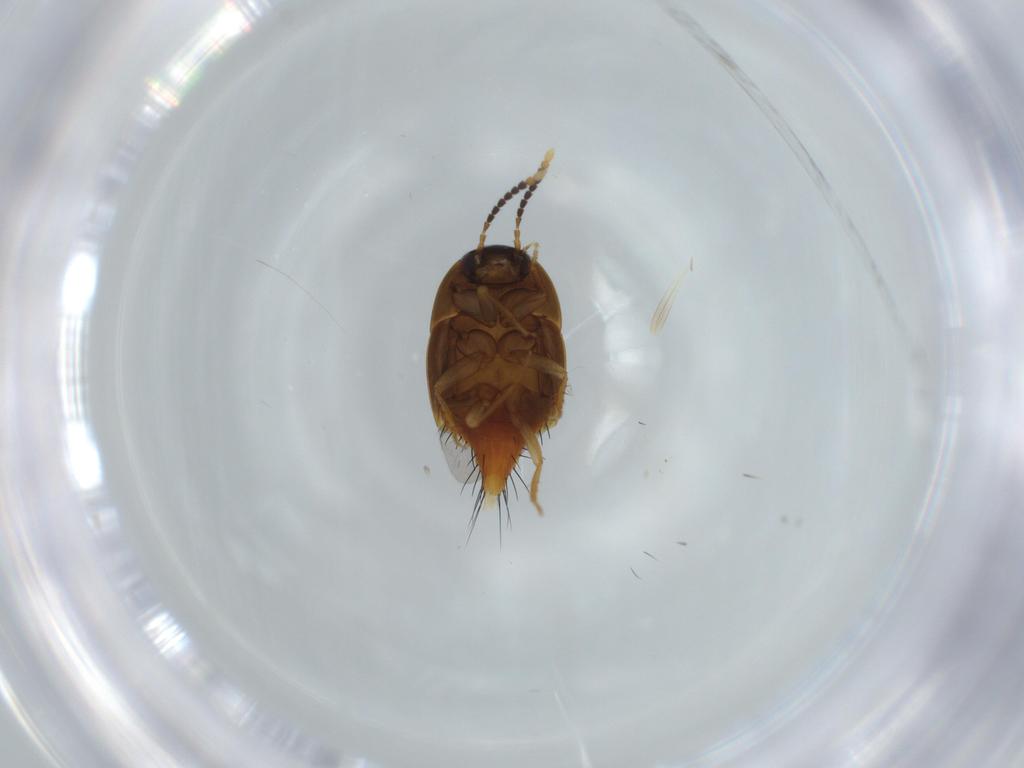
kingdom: Animalia
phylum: Arthropoda
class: Insecta
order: Coleoptera
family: Staphylinidae
